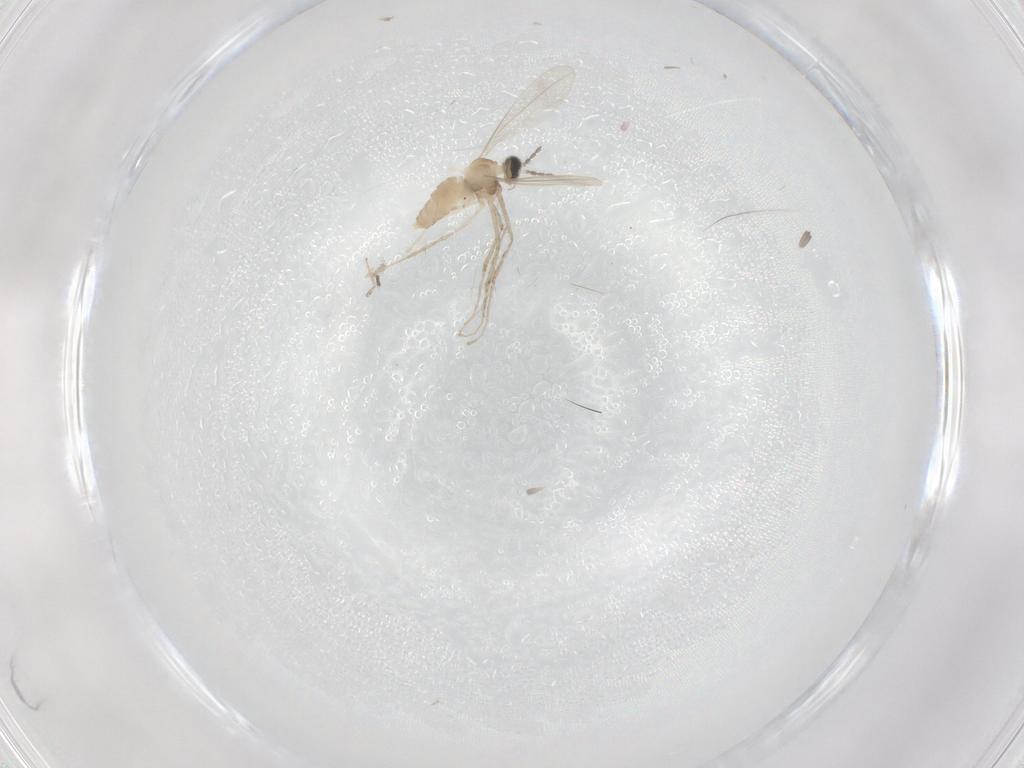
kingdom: Animalia
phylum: Arthropoda
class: Insecta
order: Diptera
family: Cecidomyiidae
